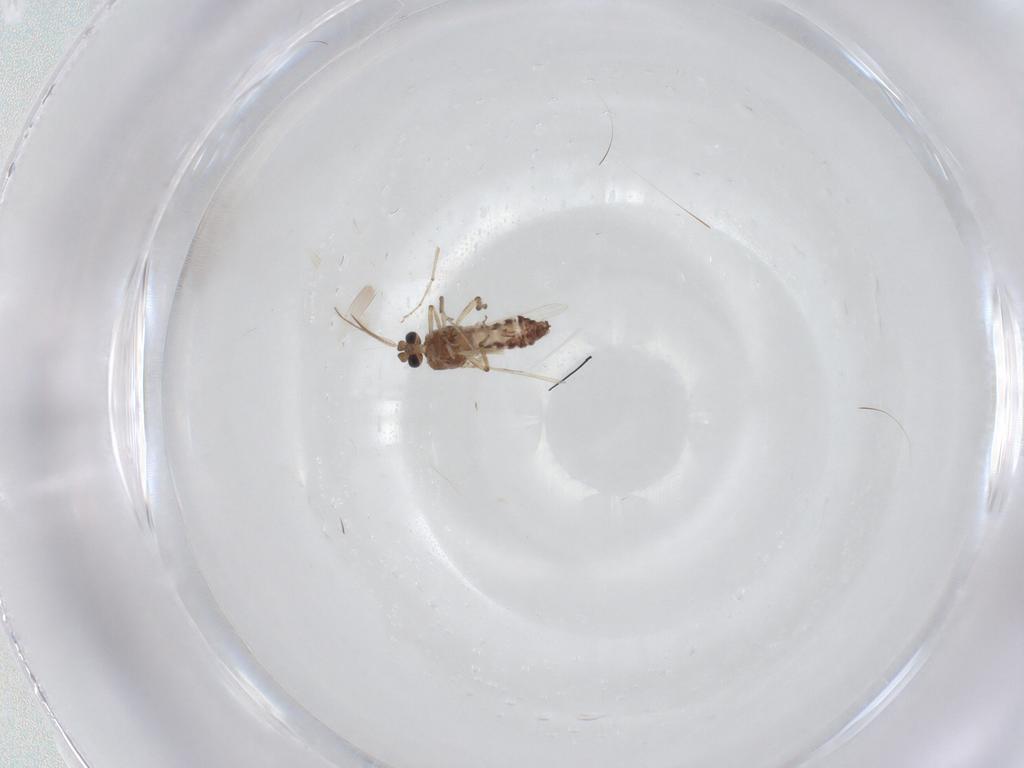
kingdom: Animalia
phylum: Arthropoda
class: Insecta
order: Diptera
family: Ceratopogonidae
